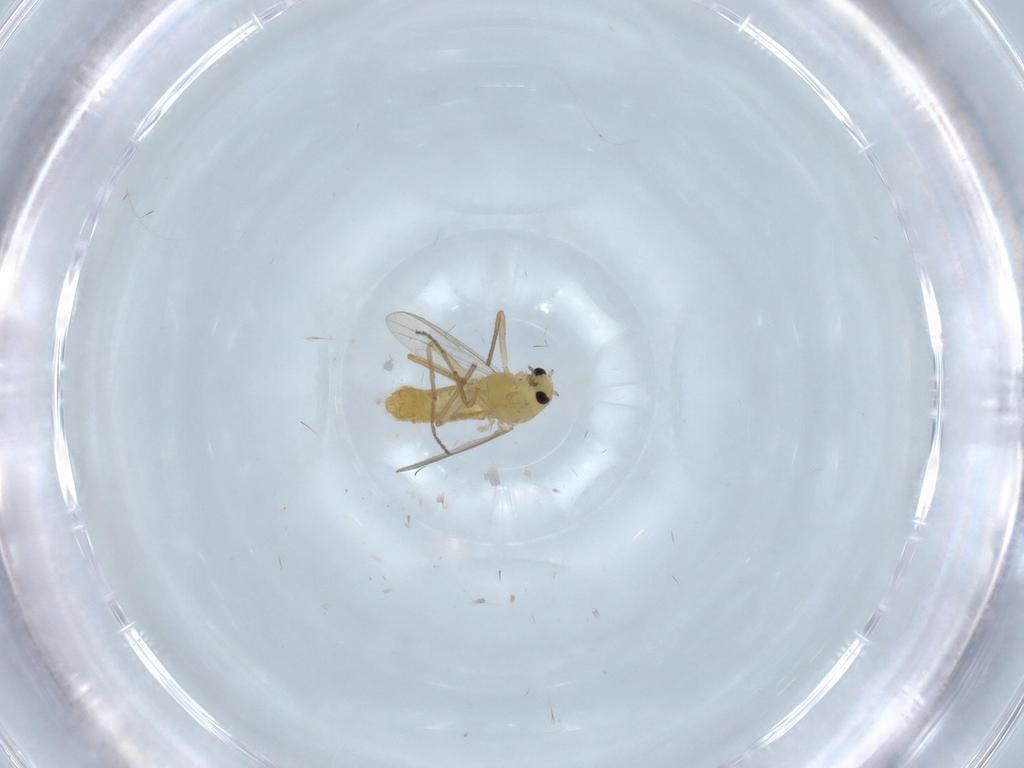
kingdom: Animalia
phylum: Arthropoda
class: Insecta
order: Diptera
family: Chironomidae
